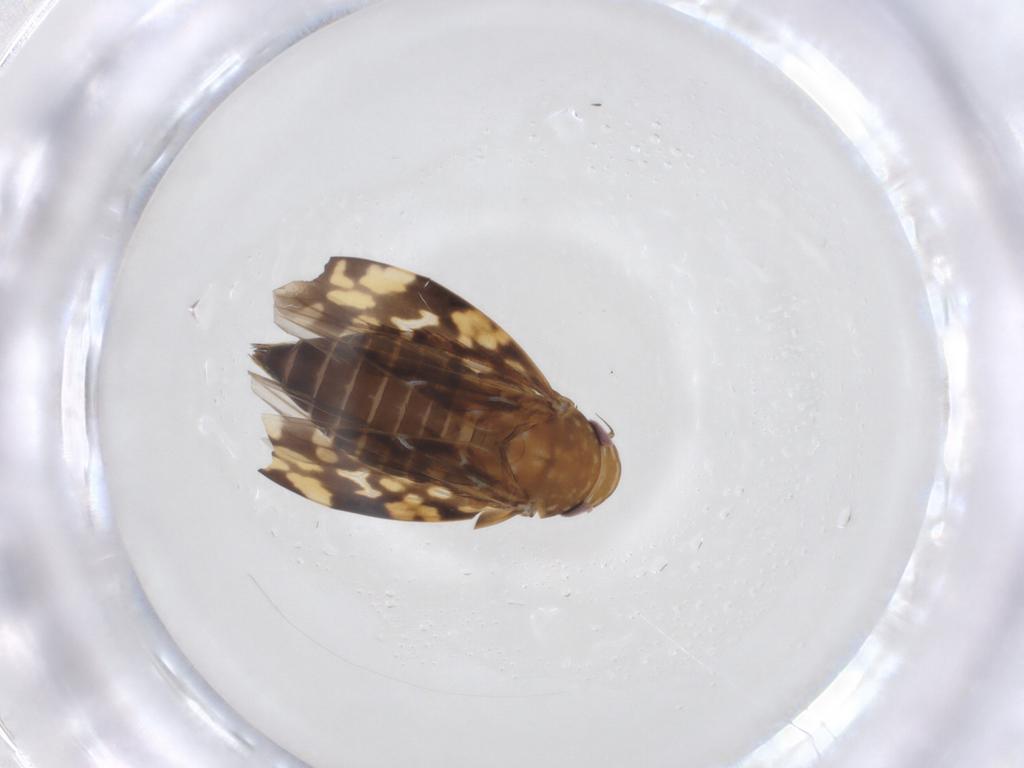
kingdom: Animalia
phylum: Arthropoda
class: Insecta
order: Hemiptera
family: Cicadellidae
